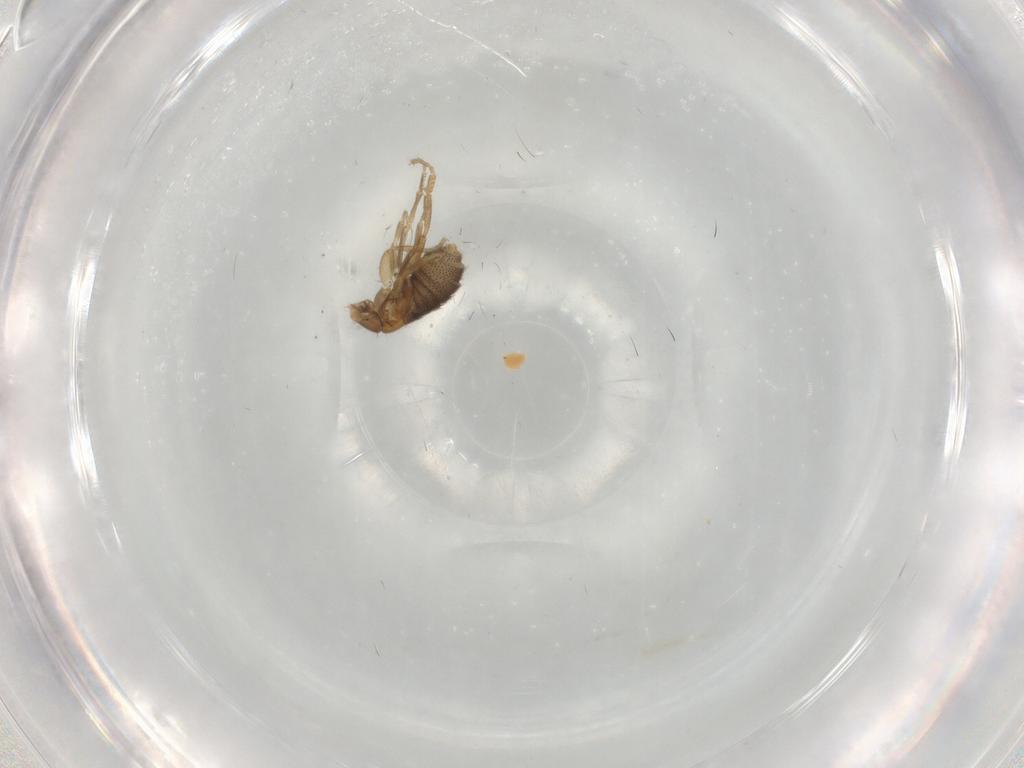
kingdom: Animalia
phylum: Arthropoda
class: Insecta
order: Diptera
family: Phoridae
